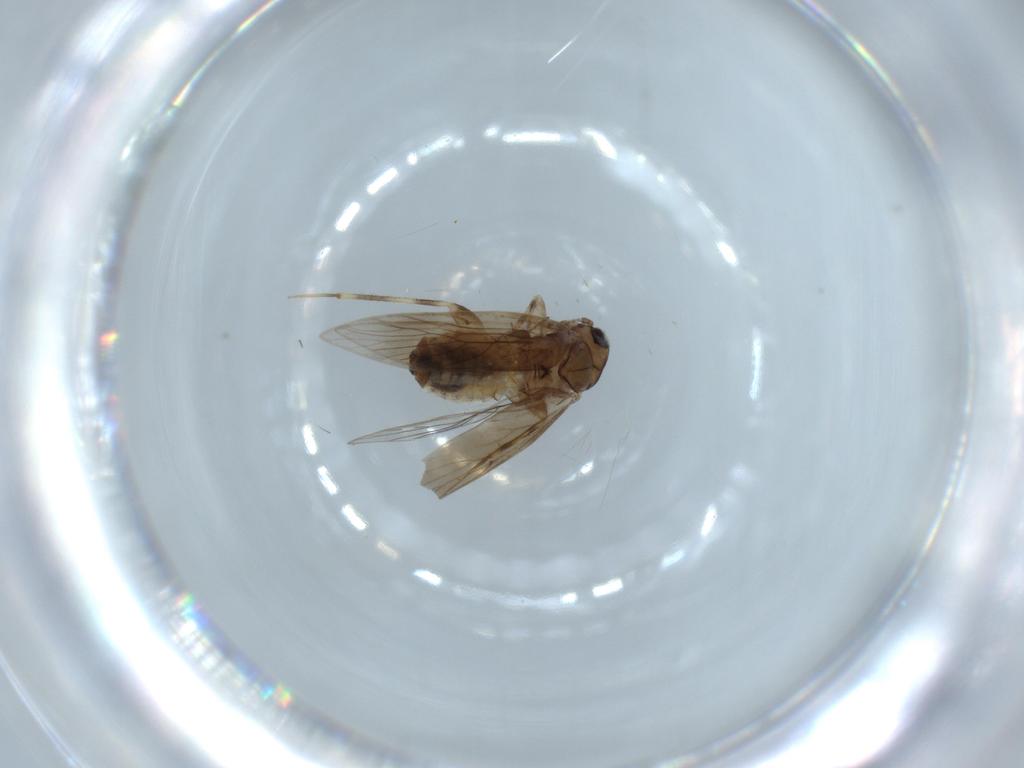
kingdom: Animalia
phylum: Arthropoda
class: Insecta
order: Psocodea
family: Lepidopsocidae
